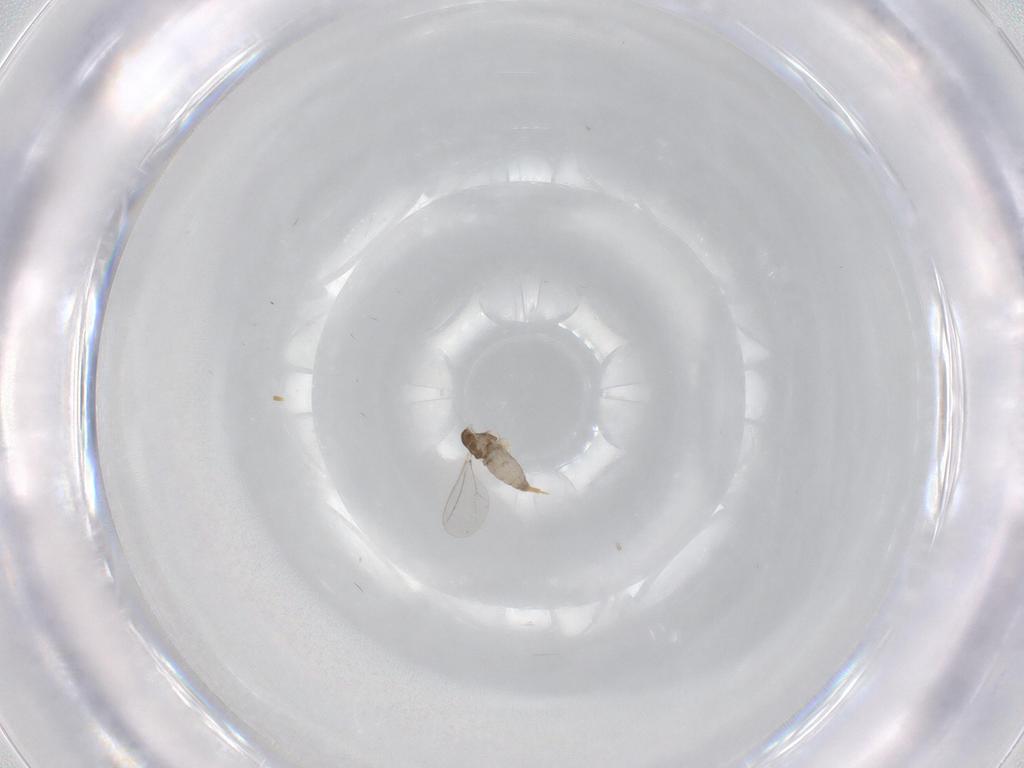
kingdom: Animalia
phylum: Arthropoda
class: Insecta
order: Diptera
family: Cecidomyiidae
